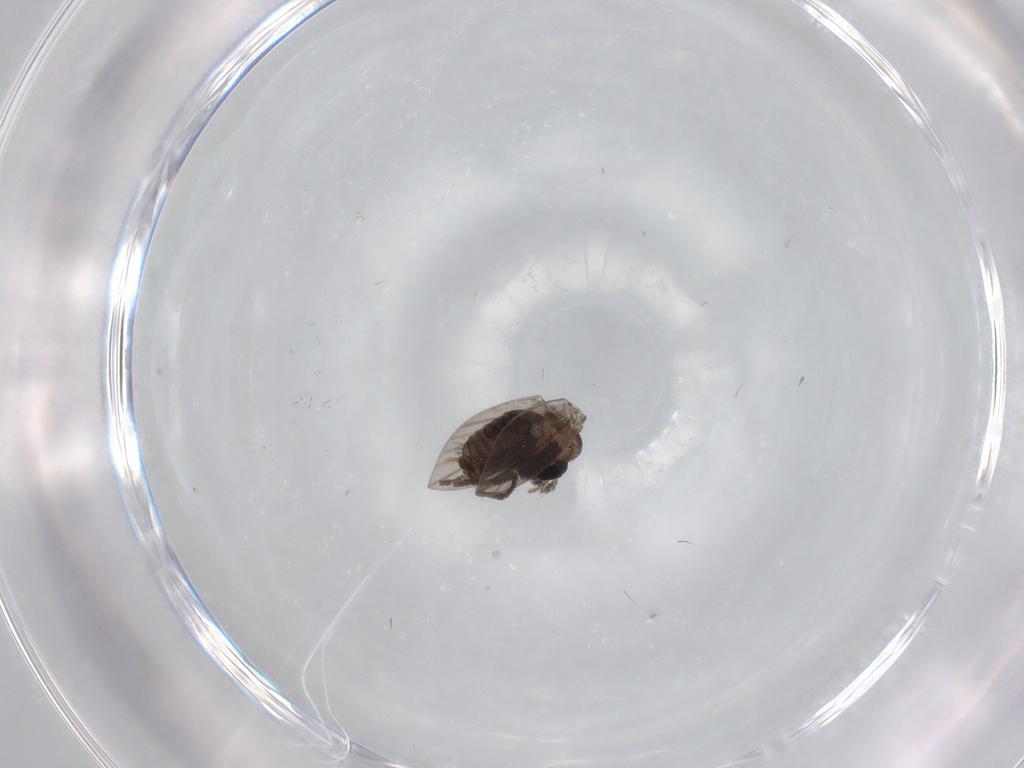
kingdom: Animalia
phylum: Arthropoda
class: Insecta
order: Diptera
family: Psychodidae
